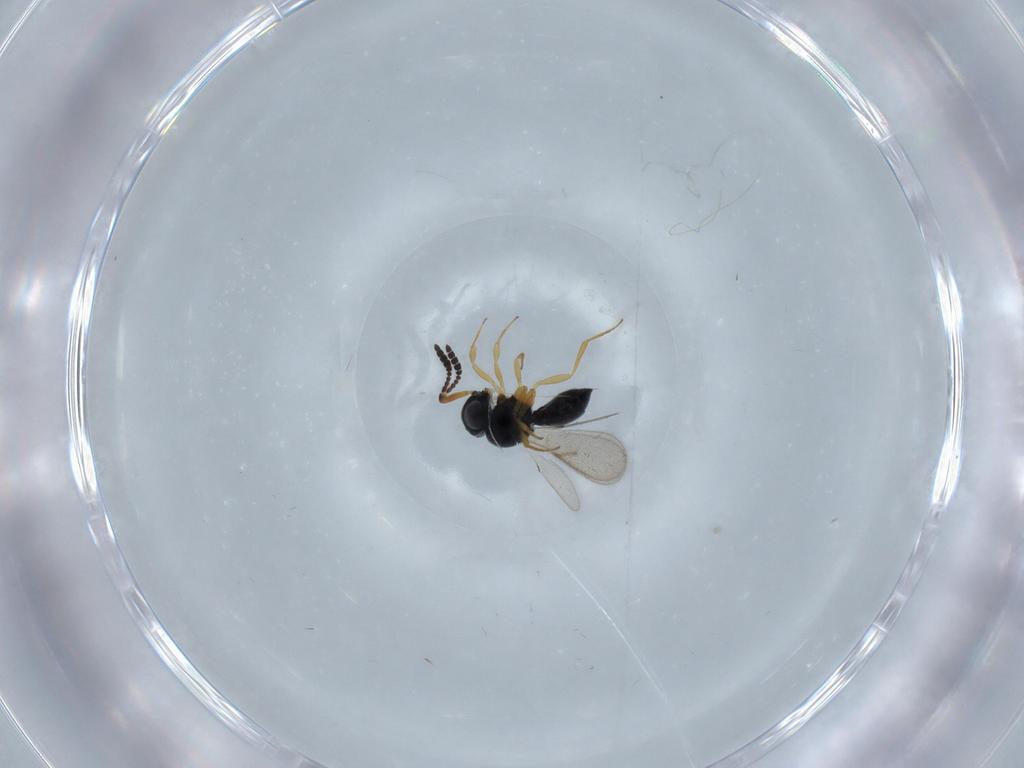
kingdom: Animalia
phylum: Arthropoda
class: Insecta
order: Hymenoptera
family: Scelionidae
